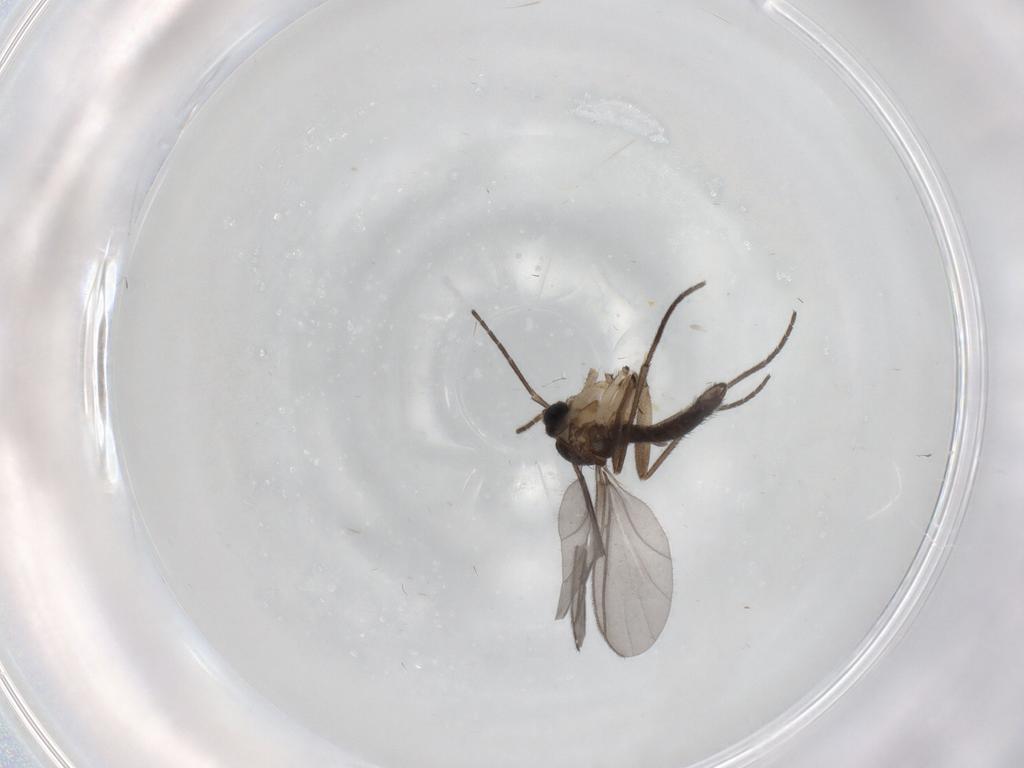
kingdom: Animalia
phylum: Arthropoda
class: Insecta
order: Diptera
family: Sciaridae
